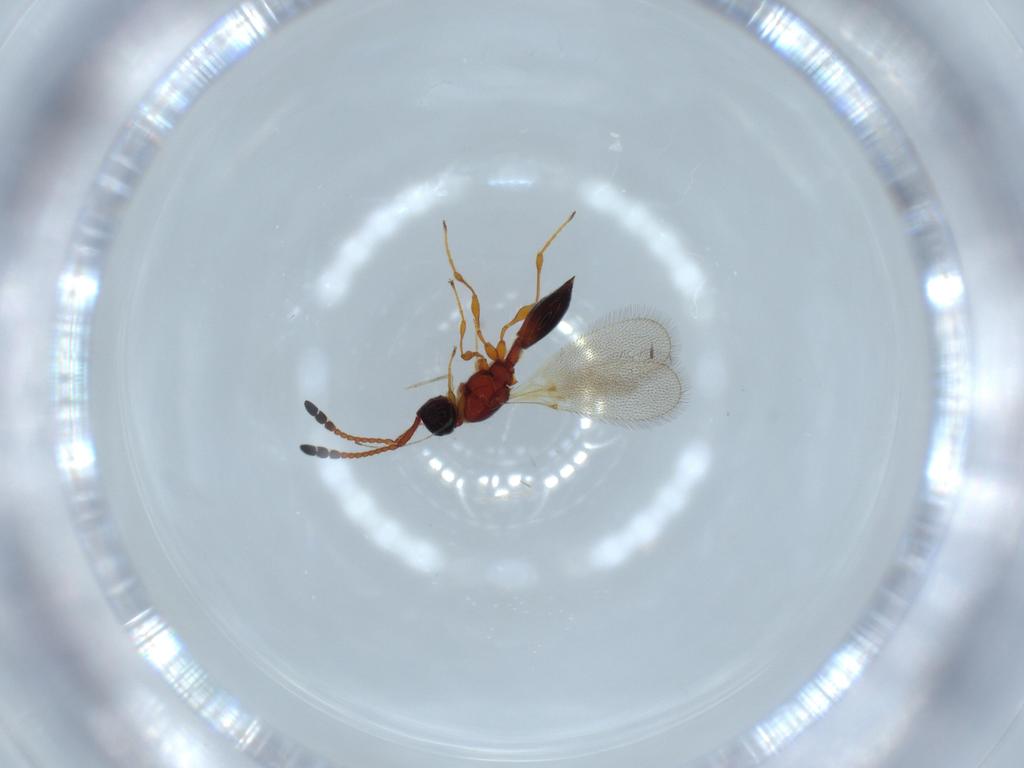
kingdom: Animalia
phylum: Arthropoda
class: Insecta
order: Hymenoptera
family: Diapriidae
